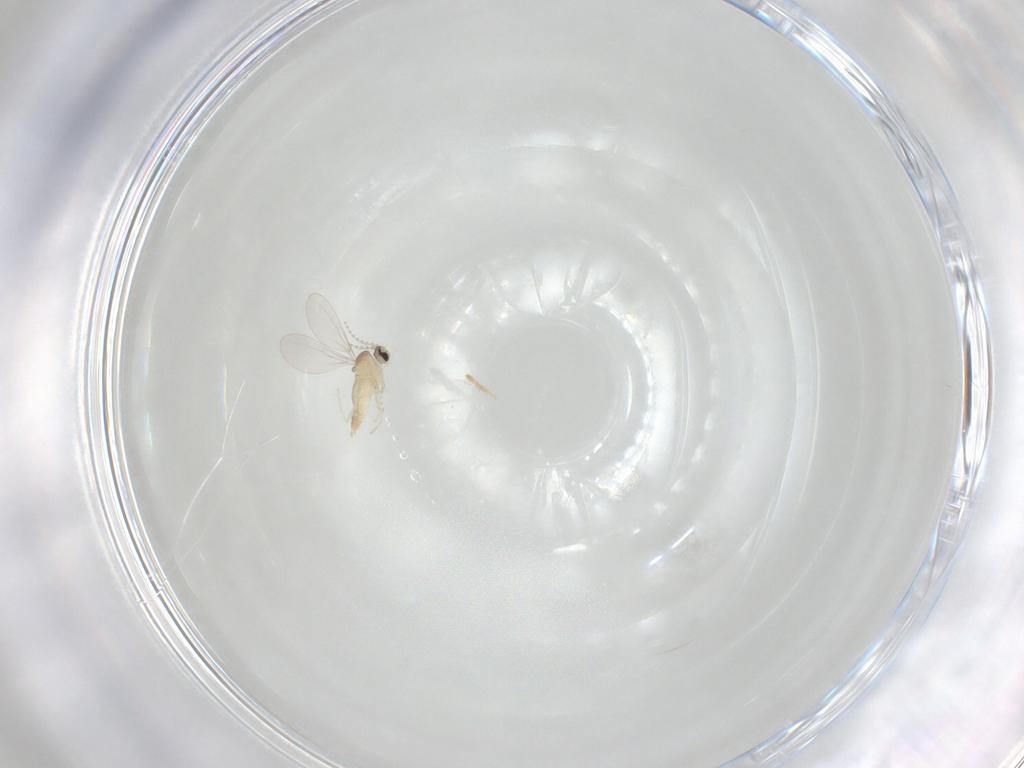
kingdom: Animalia
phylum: Arthropoda
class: Insecta
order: Diptera
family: Cecidomyiidae
